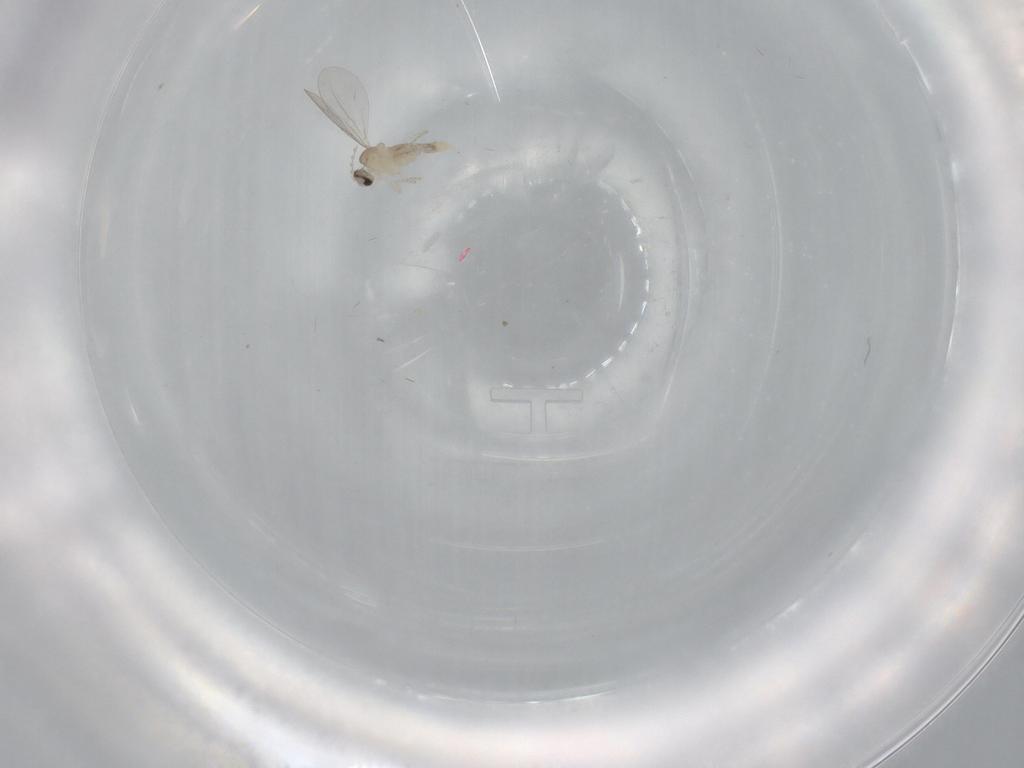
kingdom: Animalia
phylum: Arthropoda
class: Insecta
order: Diptera
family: Cecidomyiidae
